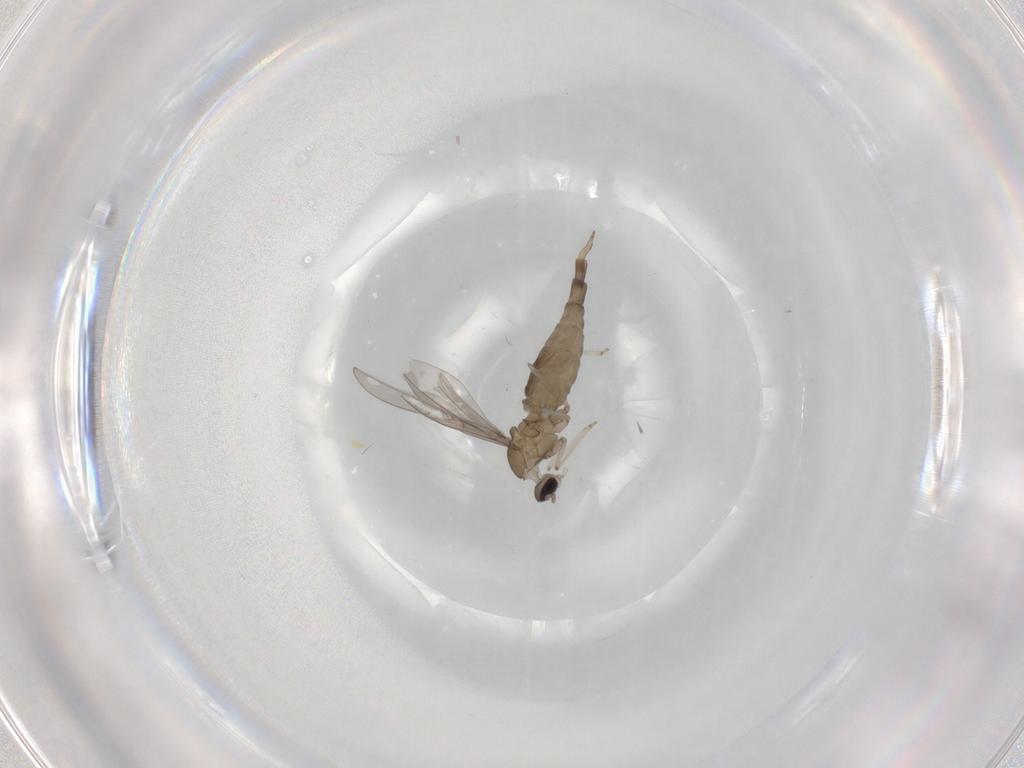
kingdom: Animalia
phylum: Arthropoda
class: Insecta
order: Diptera
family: Cecidomyiidae
